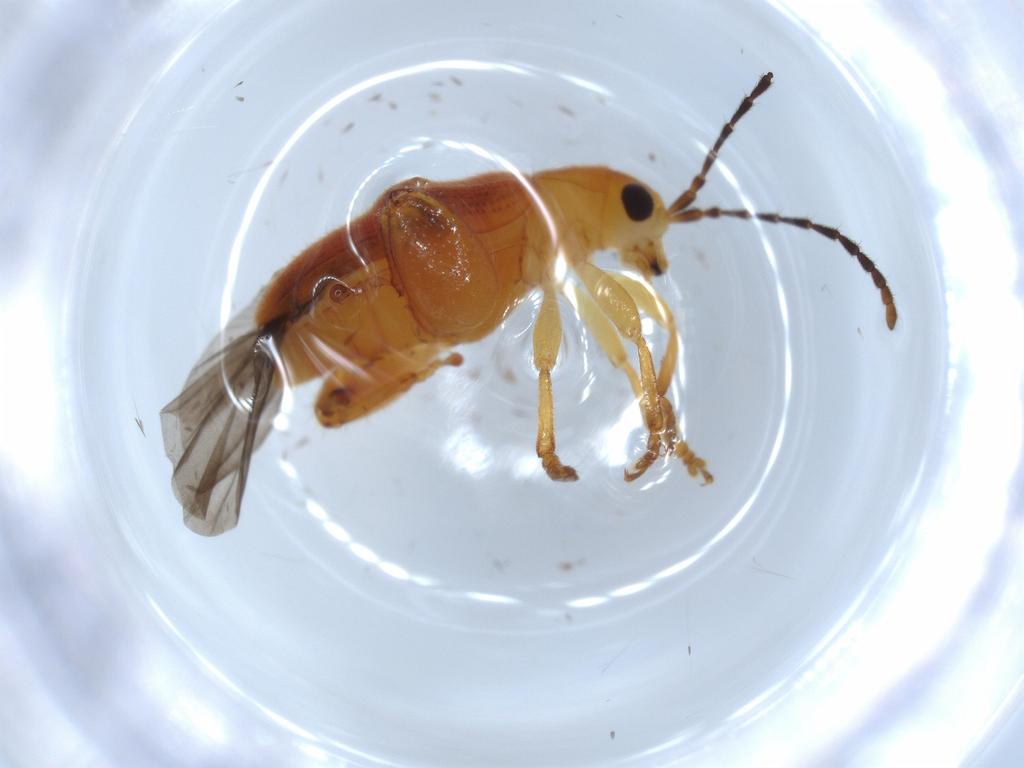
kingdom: Animalia
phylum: Arthropoda
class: Insecta
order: Coleoptera
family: Chrysomelidae
